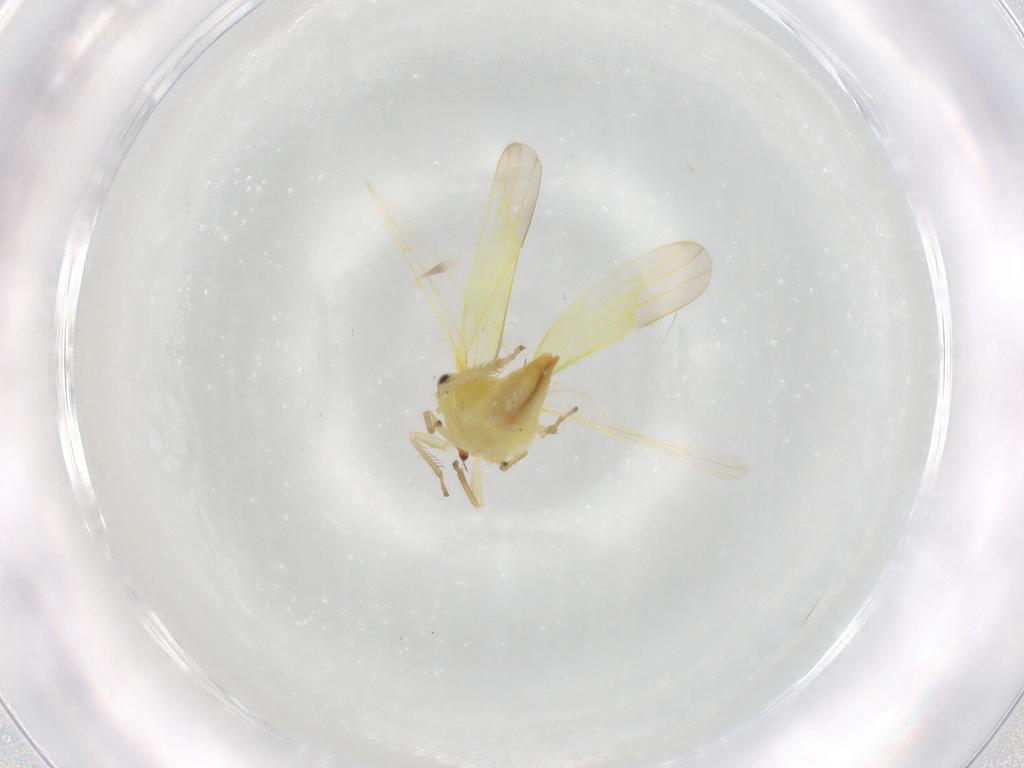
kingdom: Animalia
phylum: Arthropoda
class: Insecta
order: Hemiptera
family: Cicadellidae
